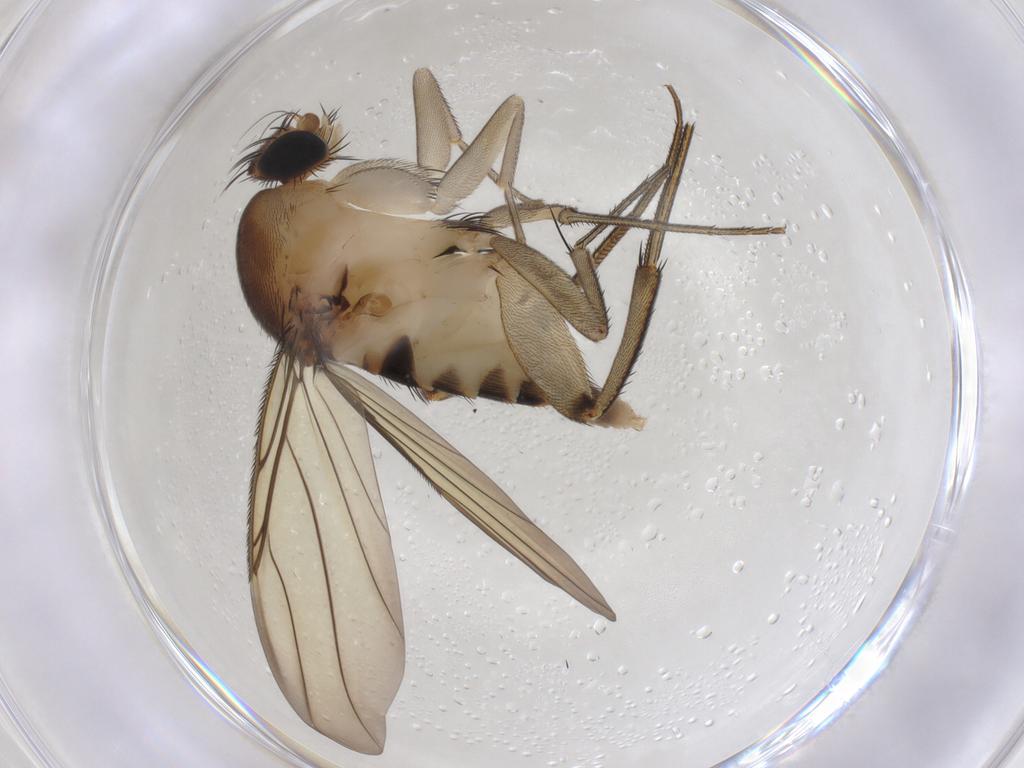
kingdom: Animalia
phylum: Arthropoda
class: Insecta
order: Diptera
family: Phoridae
